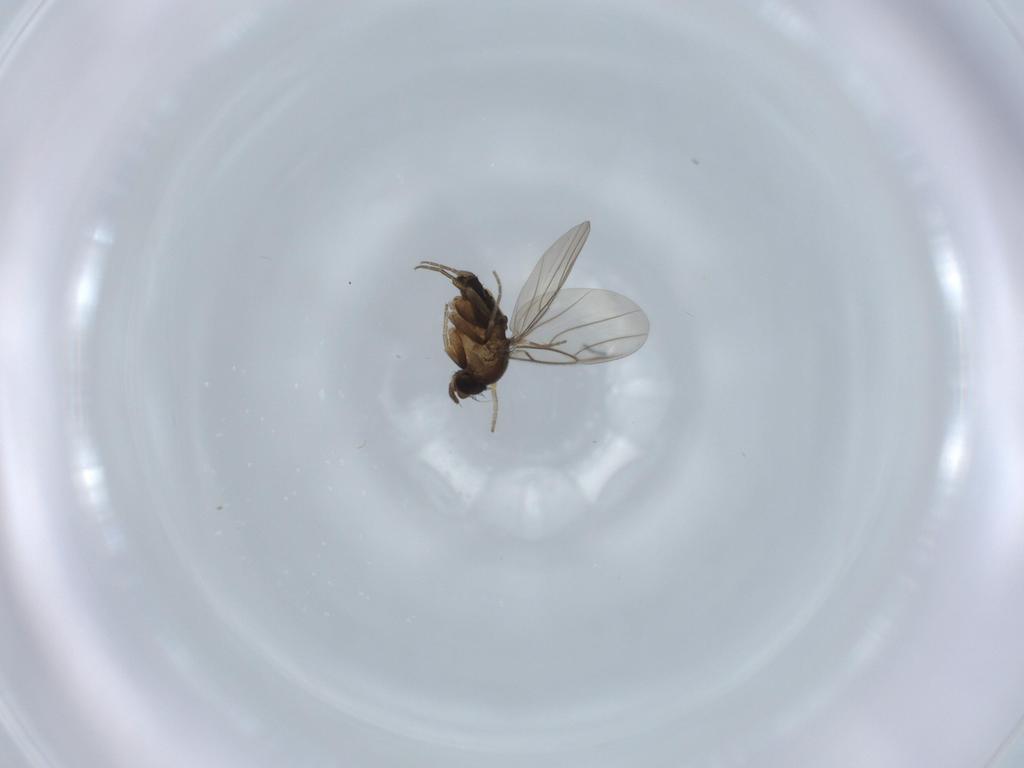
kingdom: Animalia
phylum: Arthropoda
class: Insecta
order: Diptera
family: Phoridae
